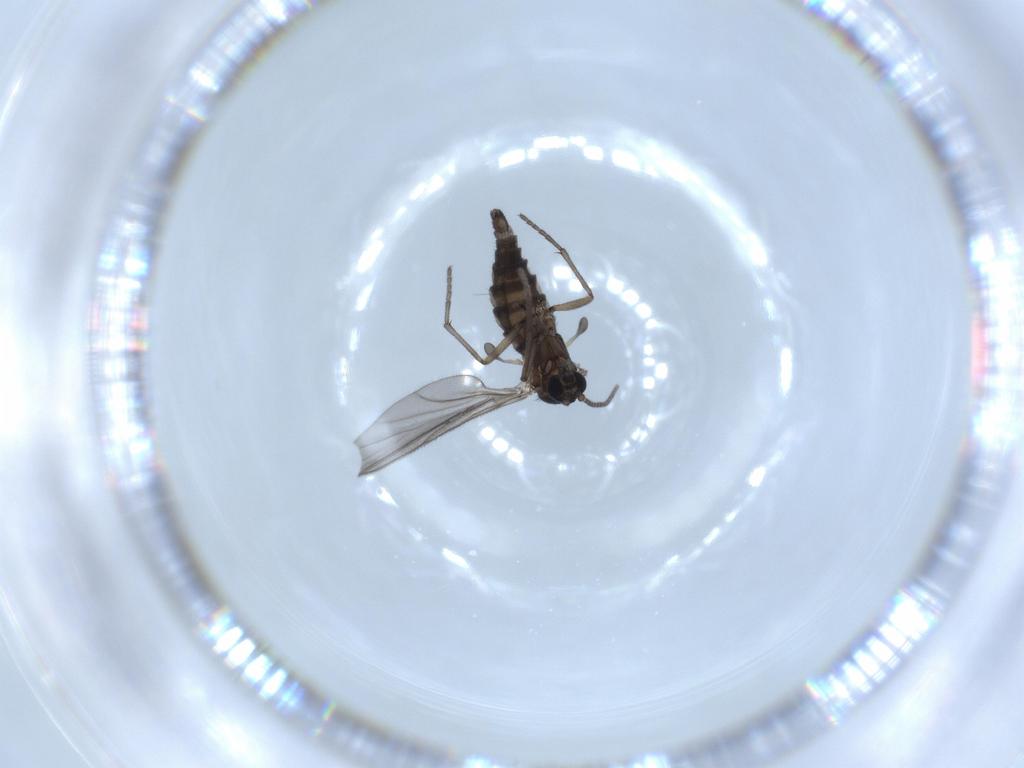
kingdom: Animalia
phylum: Arthropoda
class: Insecta
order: Diptera
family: Sciaridae
